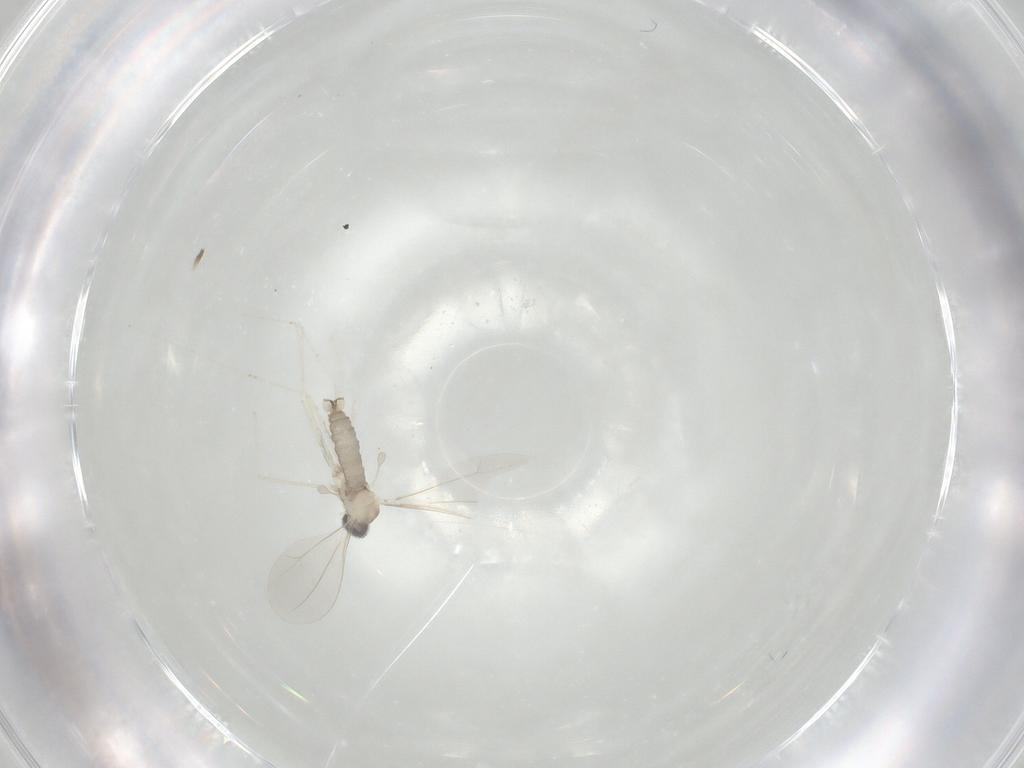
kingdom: Animalia
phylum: Arthropoda
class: Insecta
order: Diptera
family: Cecidomyiidae
